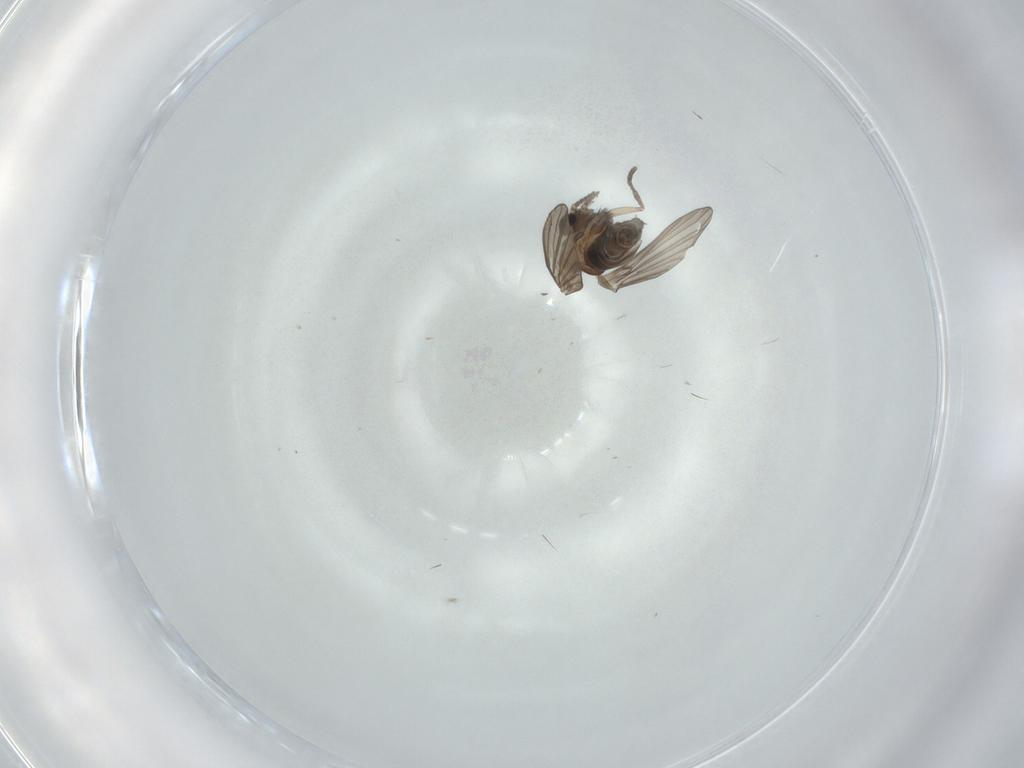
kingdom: Animalia
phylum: Arthropoda
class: Insecta
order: Diptera
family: Psychodidae
